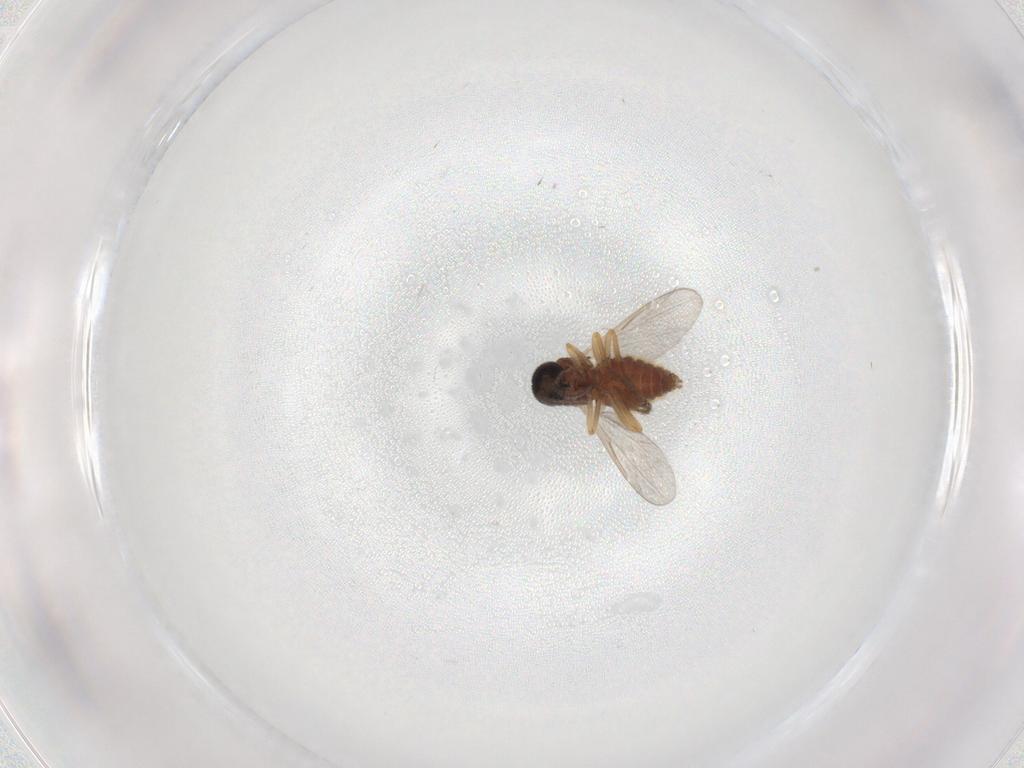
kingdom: Animalia
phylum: Arthropoda
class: Insecta
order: Diptera
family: Ceratopogonidae
